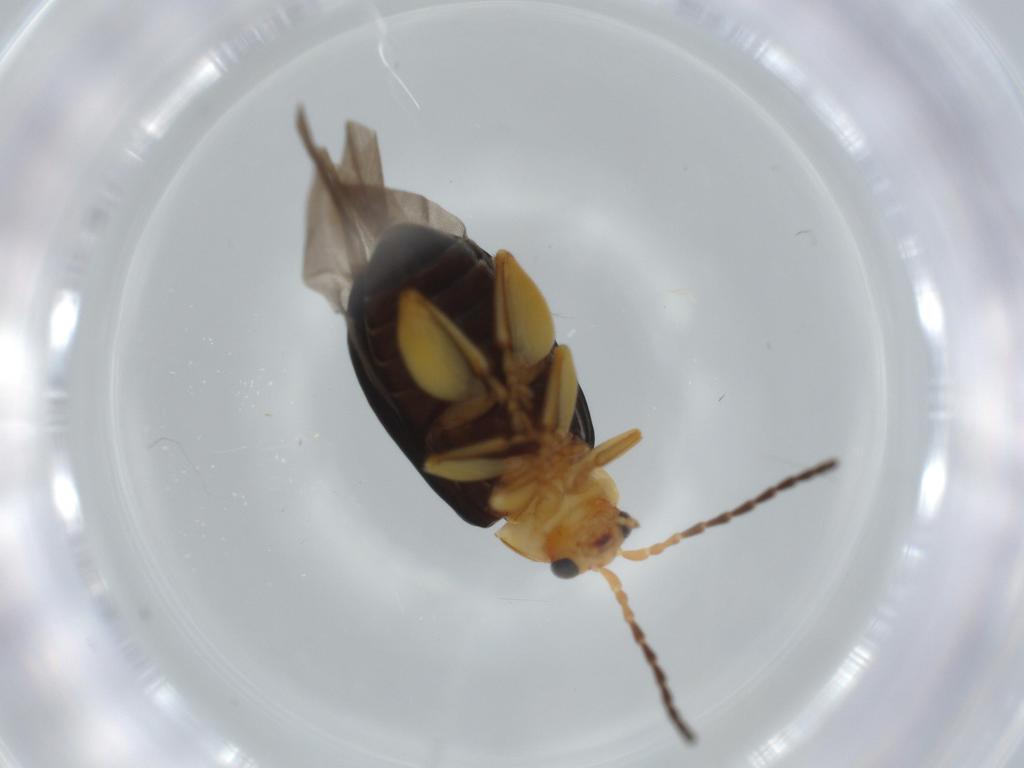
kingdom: Animalia
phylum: Arthropoda
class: Insecta
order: Coleoptera
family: Chrysomelidae
